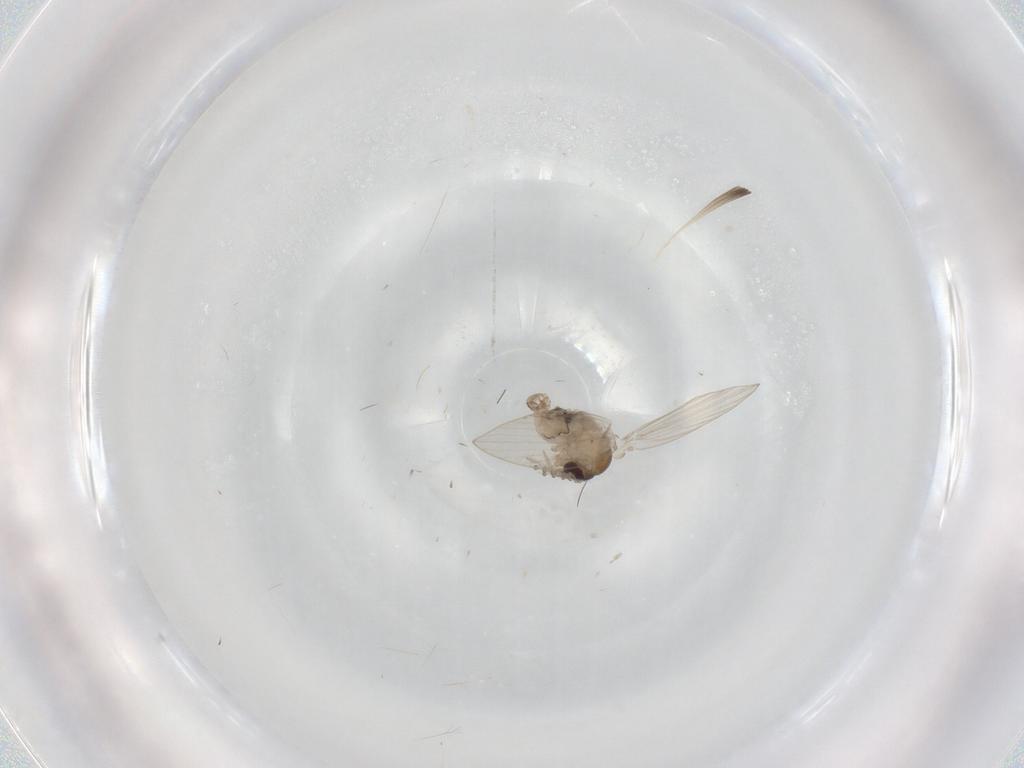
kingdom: Animalia
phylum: Arthropoda
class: Insecta
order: Diptera
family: Psychodidae
